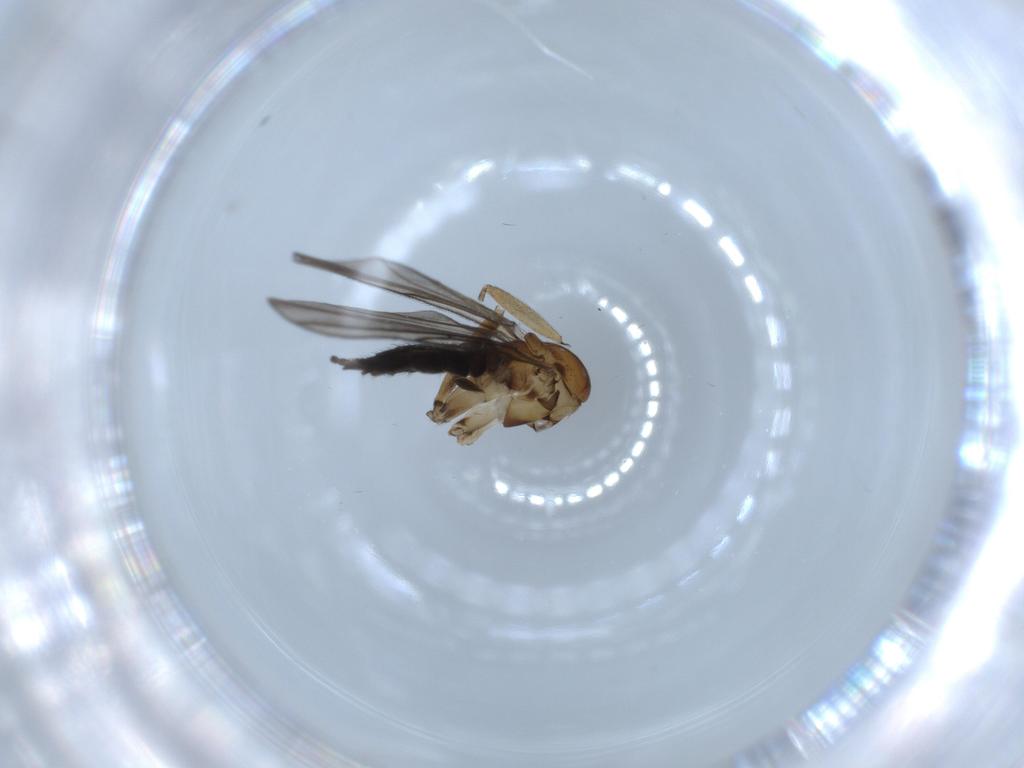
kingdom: Animalia
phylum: Arthropoda
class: Insecta
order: Diptera
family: Sciaridae
